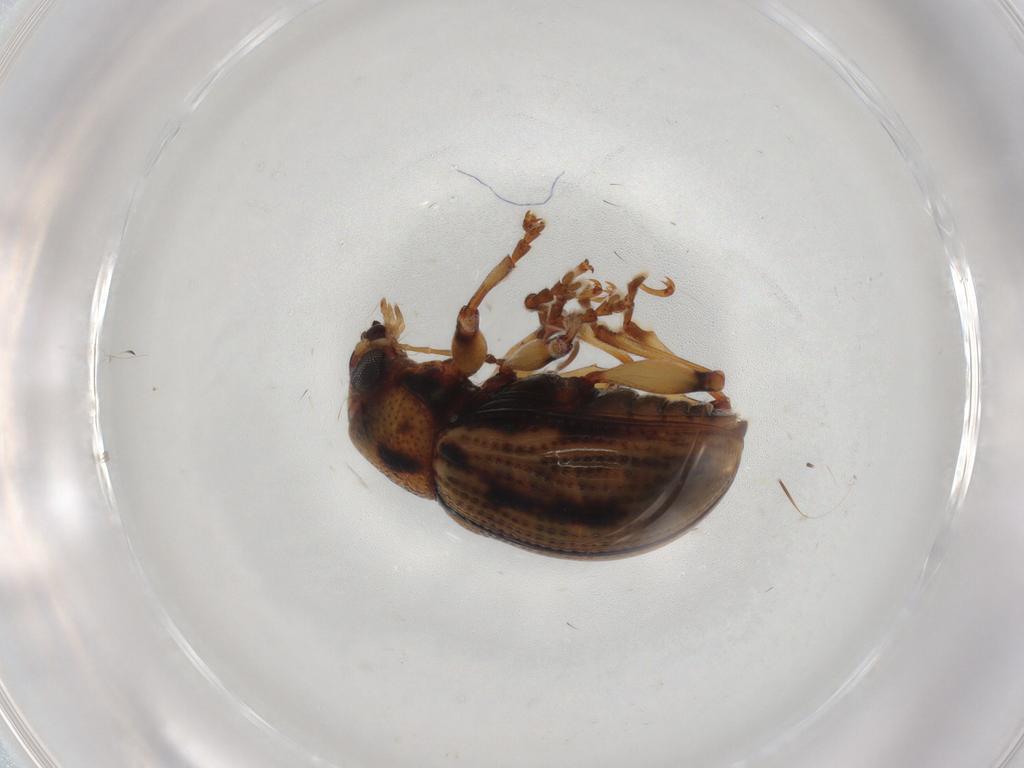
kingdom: Animalia
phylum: Arthropoda
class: Insecta
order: Coleoptera
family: Chrysomelidae
